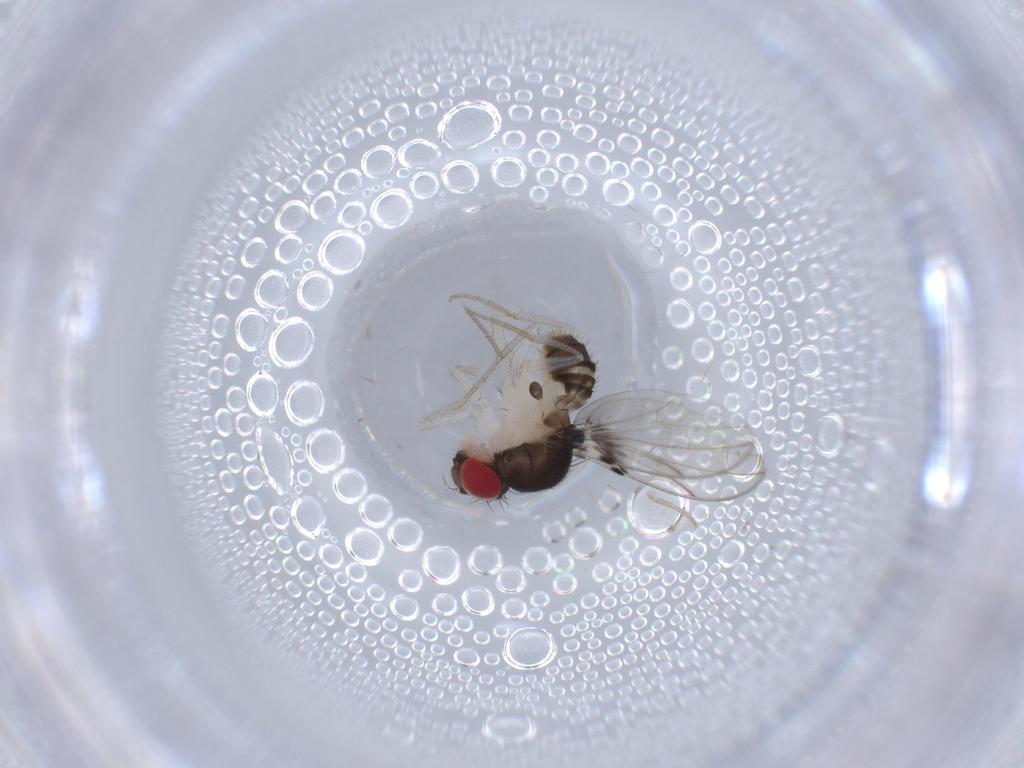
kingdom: Animalia
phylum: Arthropoda
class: Insecta
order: Diptera
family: Drosophilidae
